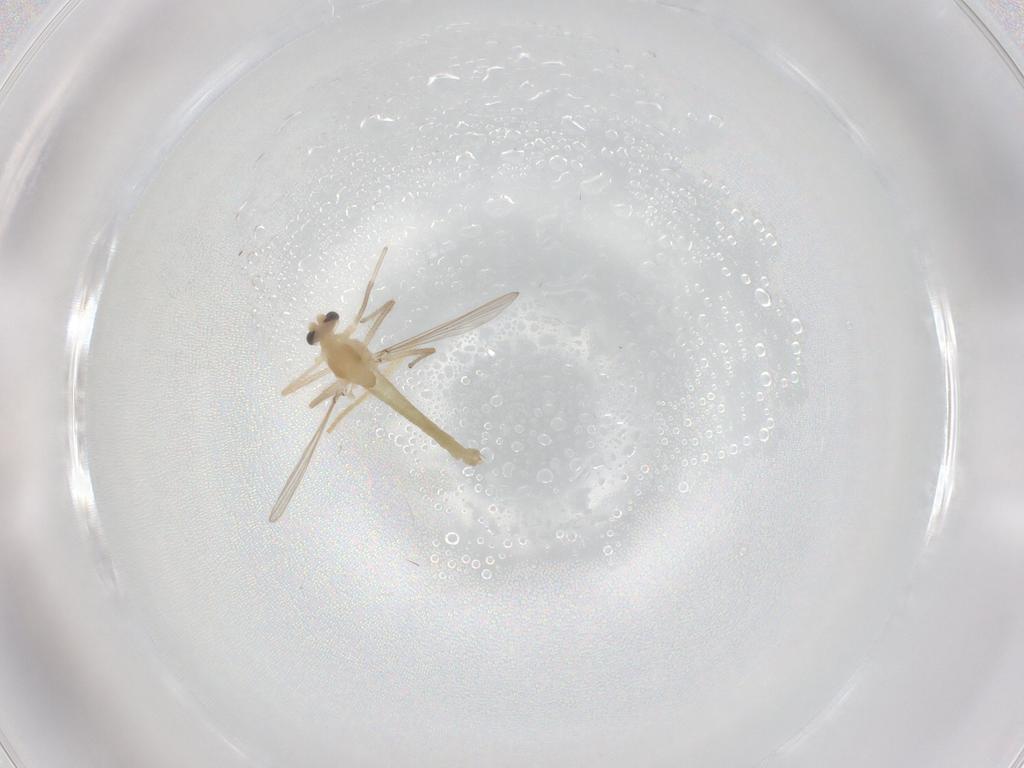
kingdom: Animalia
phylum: Arthropoda
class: Insecta
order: Diptera
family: Chironomidae
